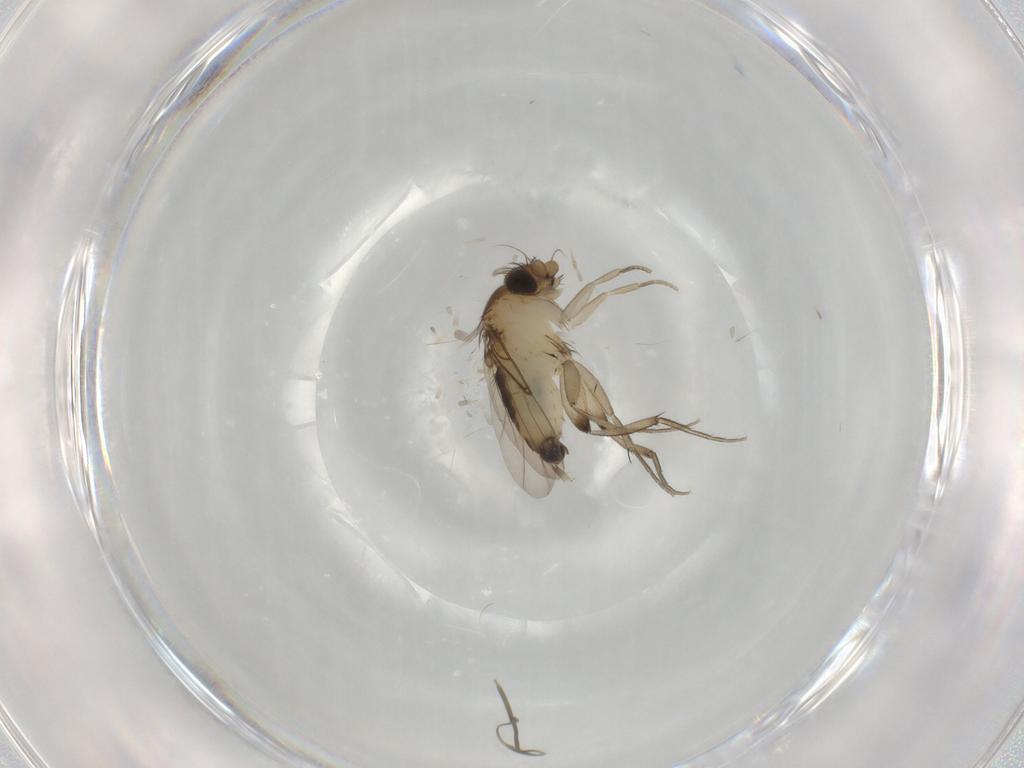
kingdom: Animalia
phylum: Arthropoda
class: Insecta
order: Diptera
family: Phoridae
